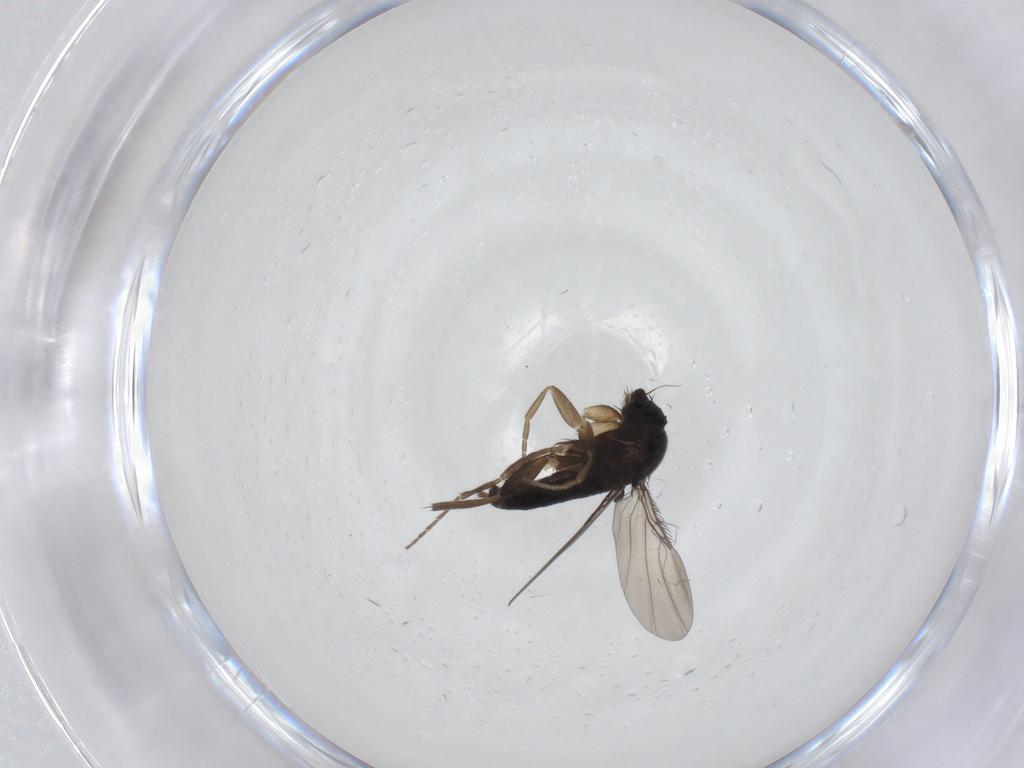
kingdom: Animalia
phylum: Arthropoda
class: Insecta
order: Diptera
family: Phoridae
